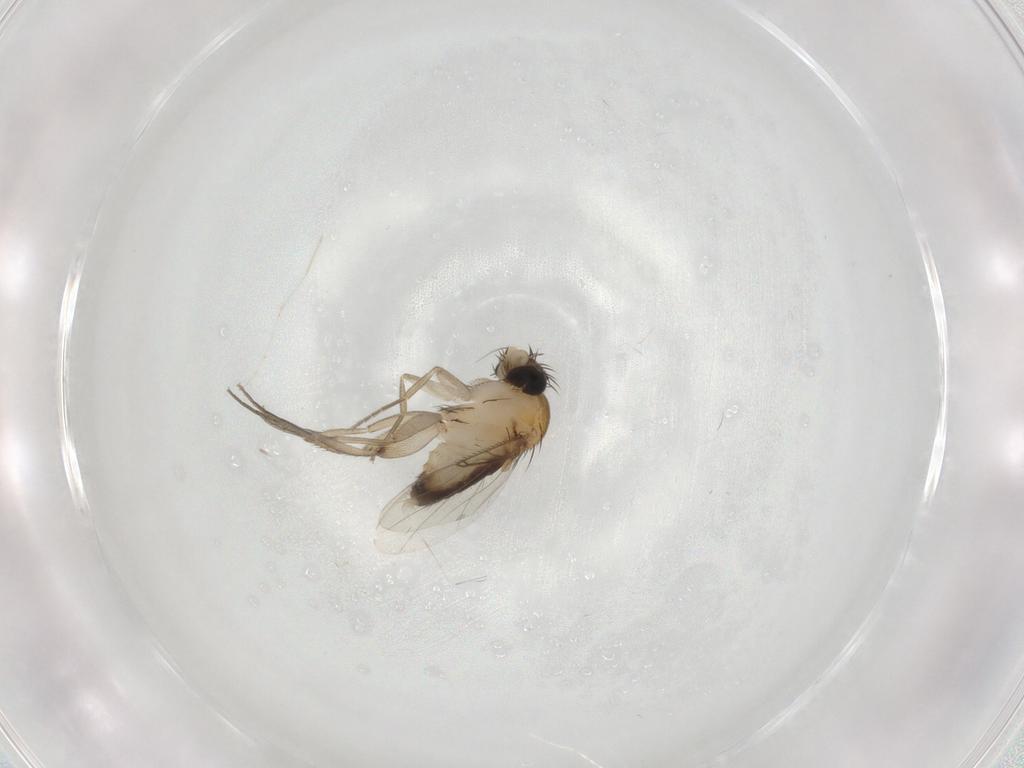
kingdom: Animalia
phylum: Arthropoda
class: Insecta
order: Diptera
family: Phoridae
